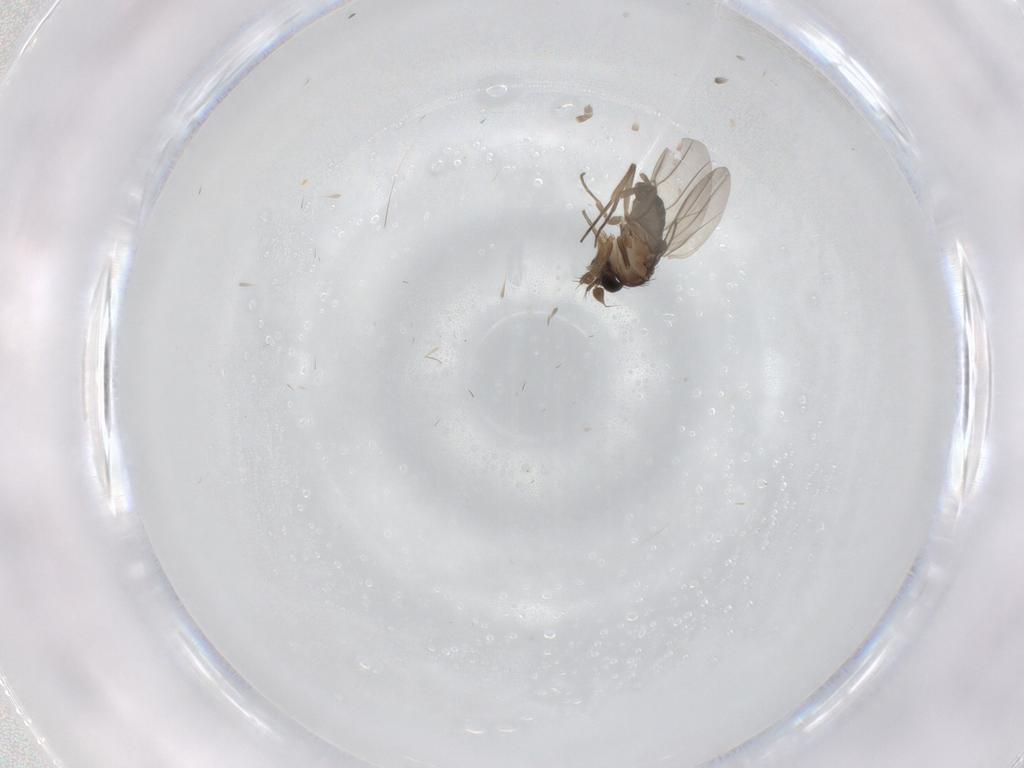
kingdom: Animalia
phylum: Arthropoda
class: Insecta
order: Diptera
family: Phoridae
